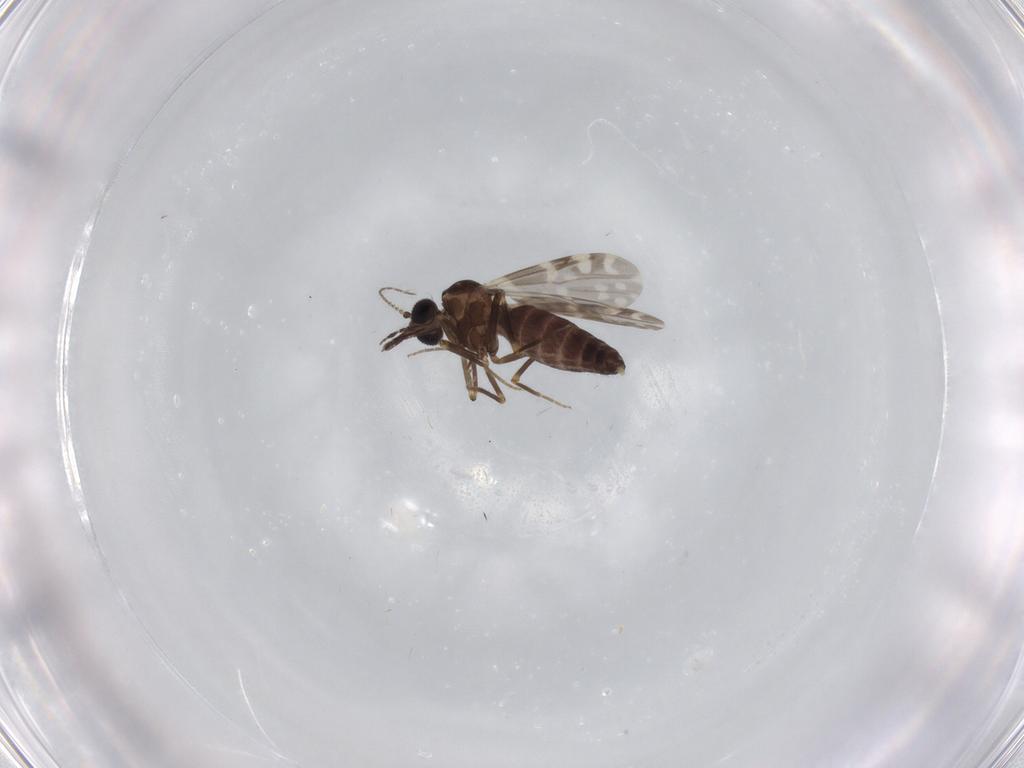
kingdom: Animalia
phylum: Arthropoda
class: Insecta
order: Diptera
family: Ceratopogonidae
